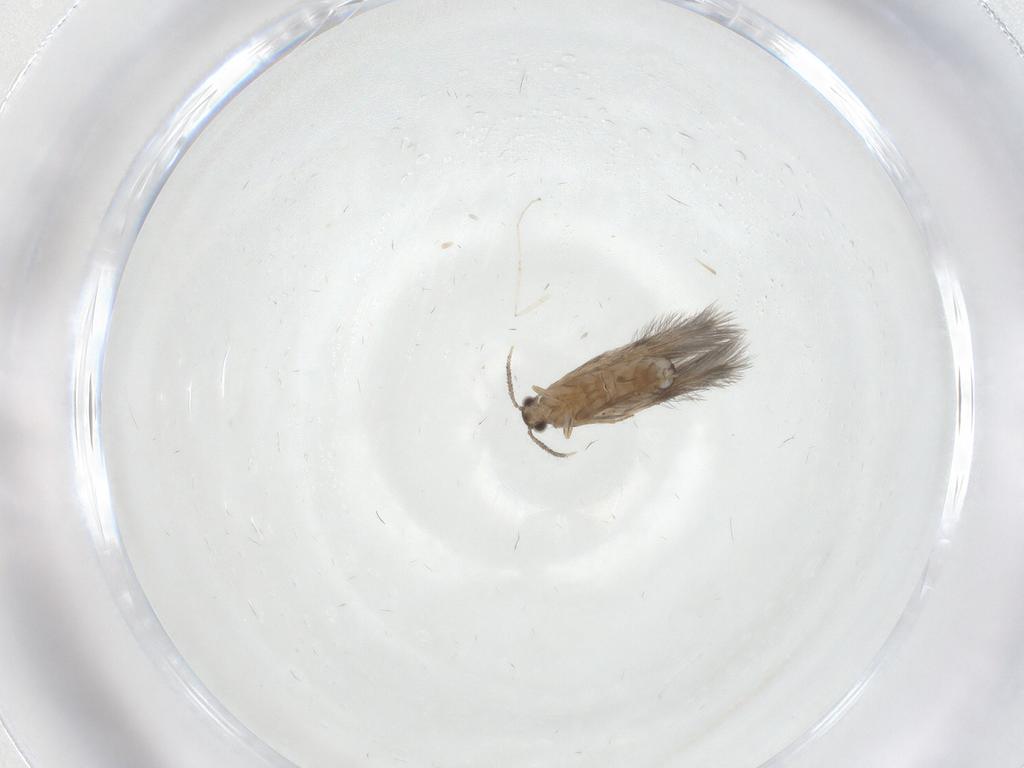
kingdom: Animalia
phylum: Arthropoda
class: Insecta
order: Trichoptera
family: Hydroptilidae
